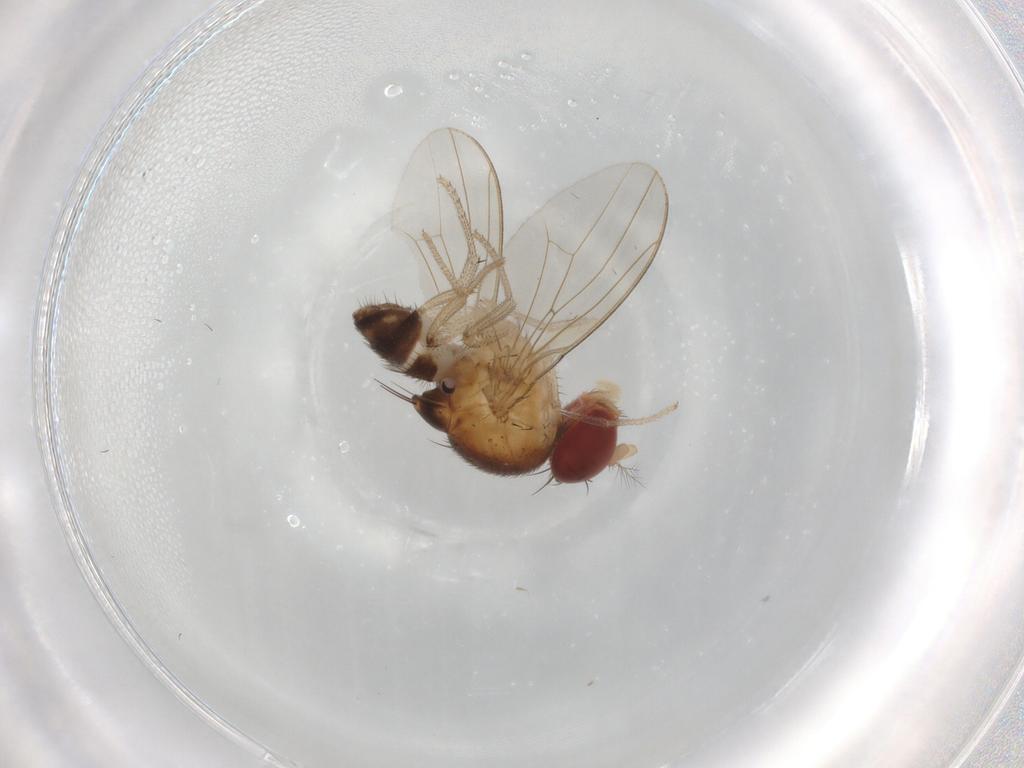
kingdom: Animalia
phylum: Arthropoda
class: Insecta
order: Diptera
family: Drosophilidae
